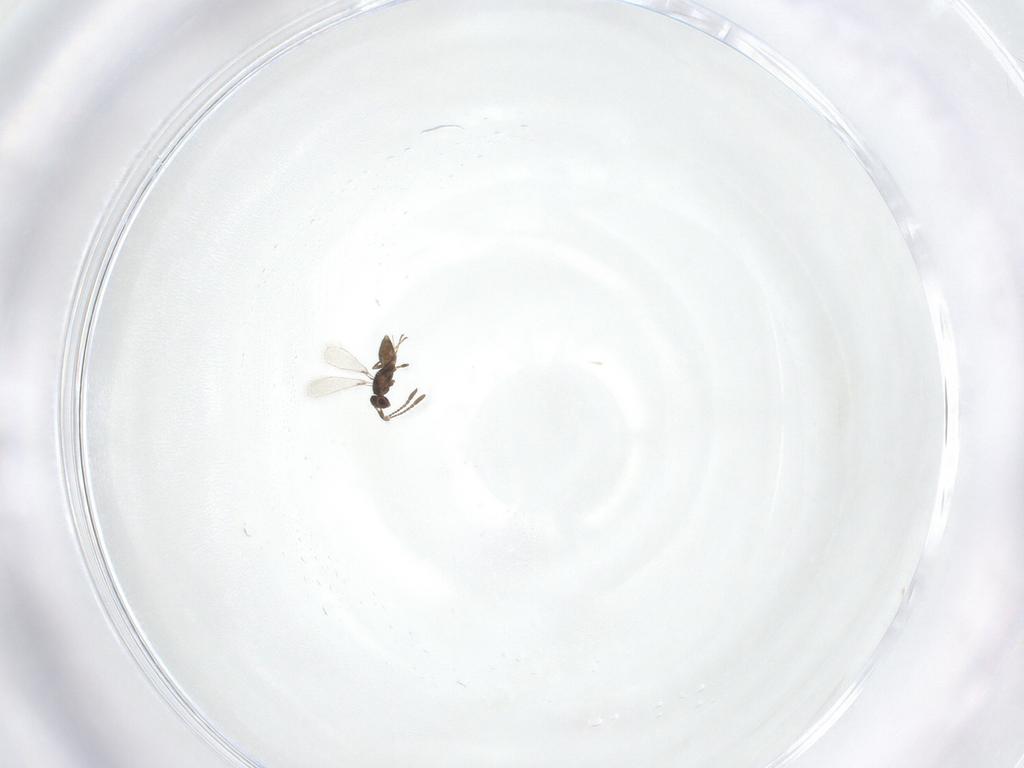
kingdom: Animalia
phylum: Arthropoda
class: Insecta
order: Hymenoptera
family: Mymaridae
